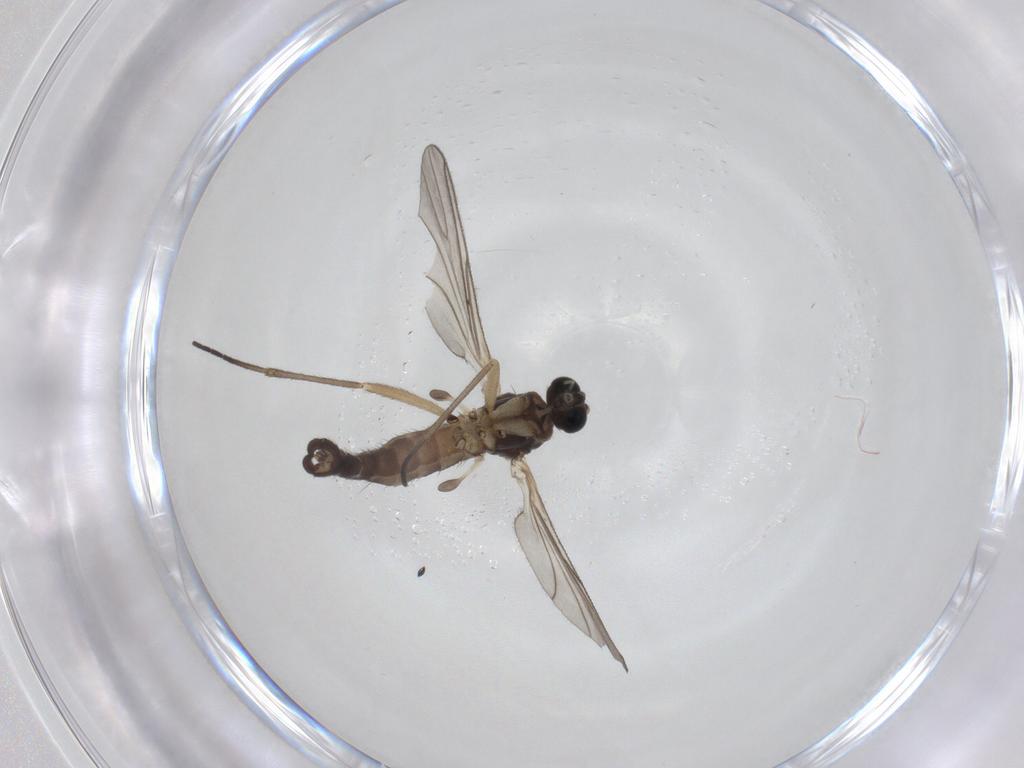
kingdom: Animalia
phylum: Arthropoda
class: Insecta
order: Diptera
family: Sciaridae
